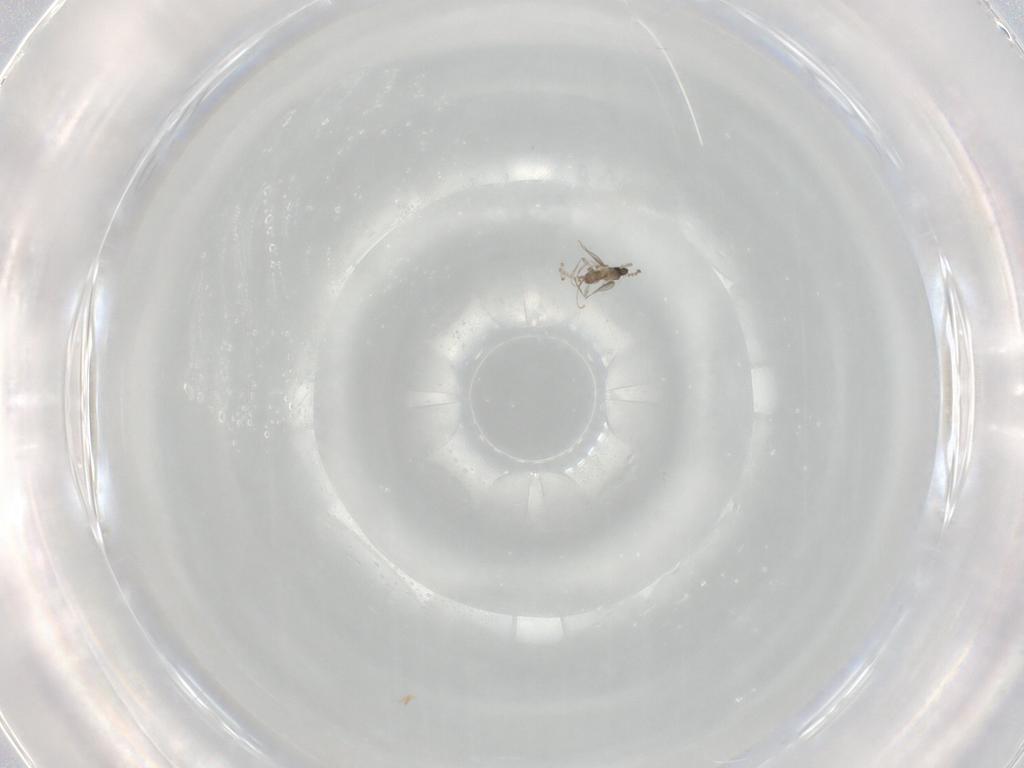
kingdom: Animalia
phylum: Arthropoda
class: Insecta
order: Diptera
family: Cecidomyiidae
